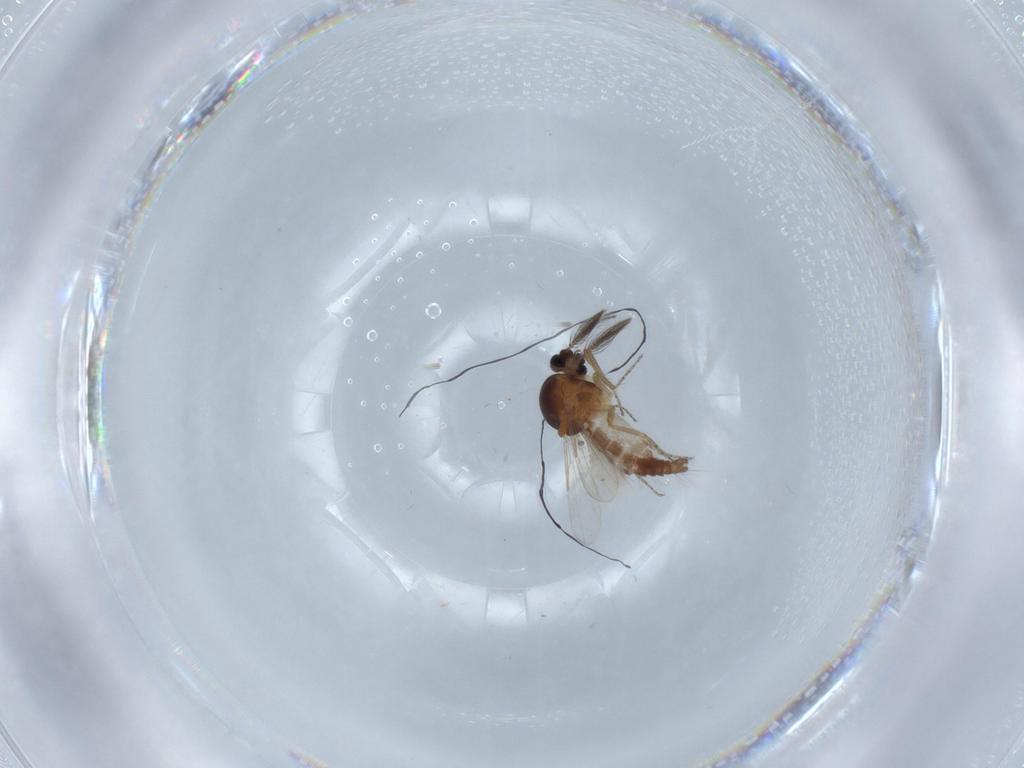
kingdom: Animalia
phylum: Arthropoda
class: Insecta
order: Diptera
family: Ceratopogonidae
